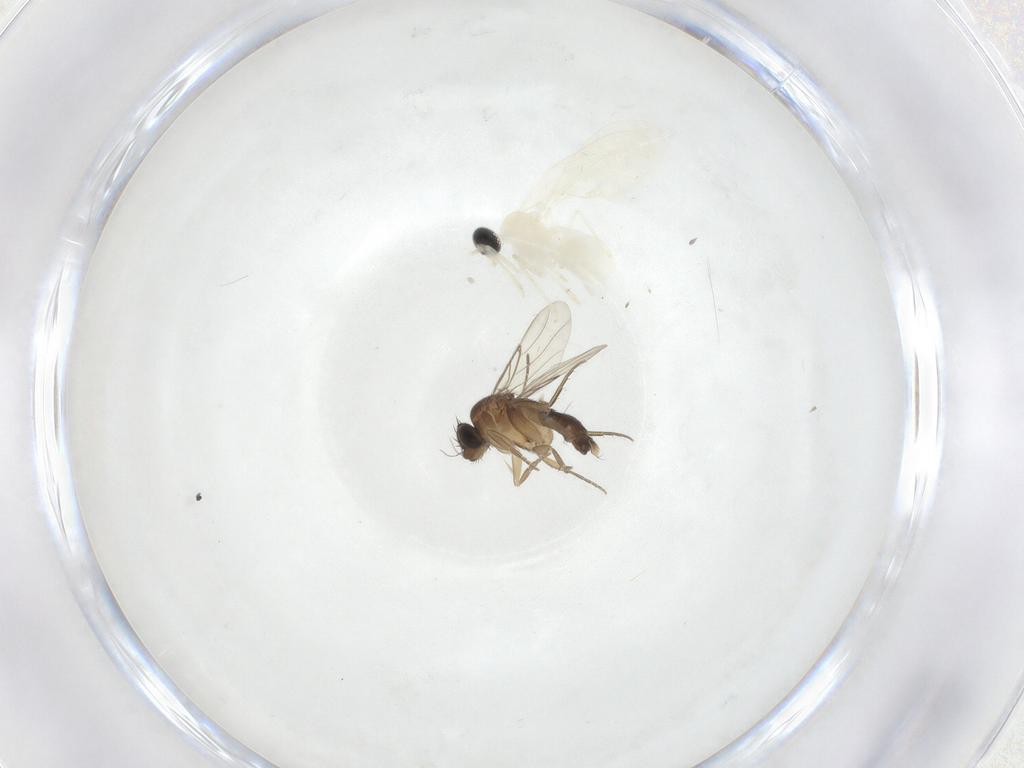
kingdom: Animalia
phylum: Arthropoda
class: Insecta
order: Diptera
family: Cecidomyiidae
